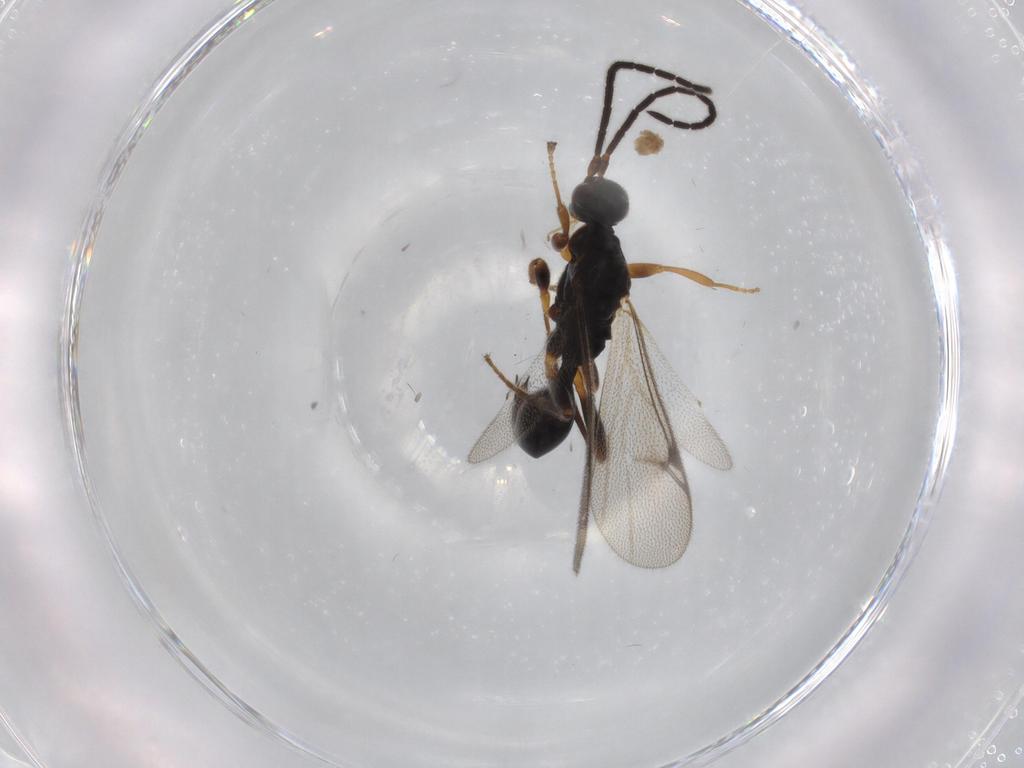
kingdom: Animalia
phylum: Arthropoda
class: Insecta
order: Hymenoptera
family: Proctotrupidae
